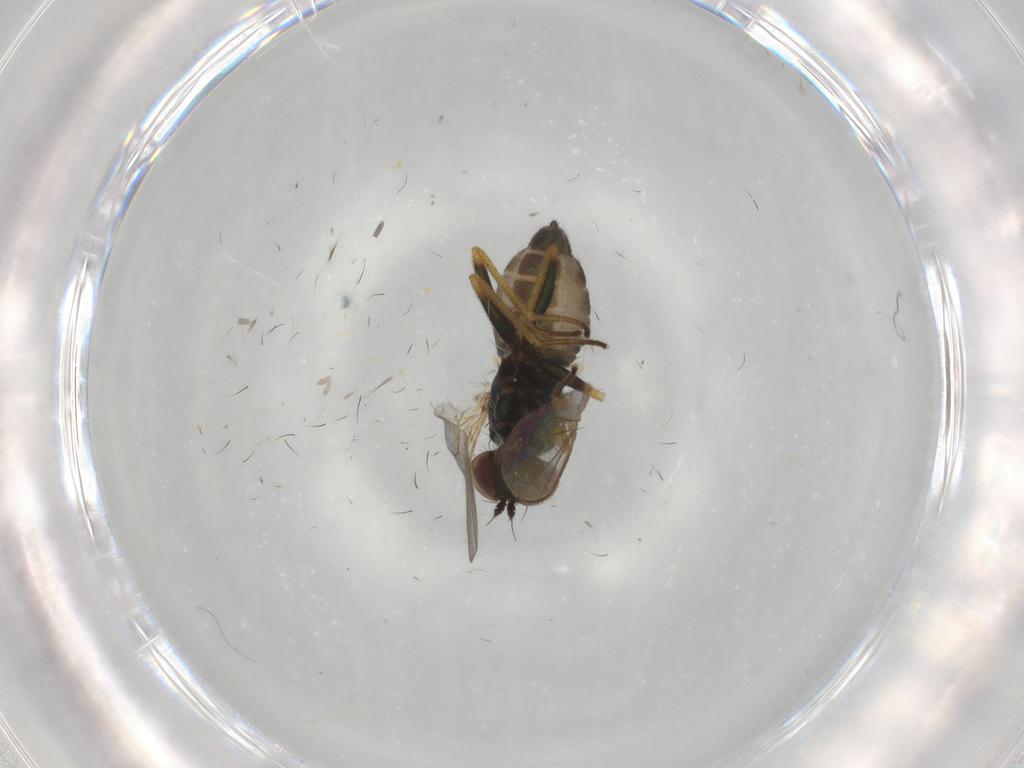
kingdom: Animalia
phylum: Arthropoda
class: Insecta
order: Diptera
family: Dolichopodidae
